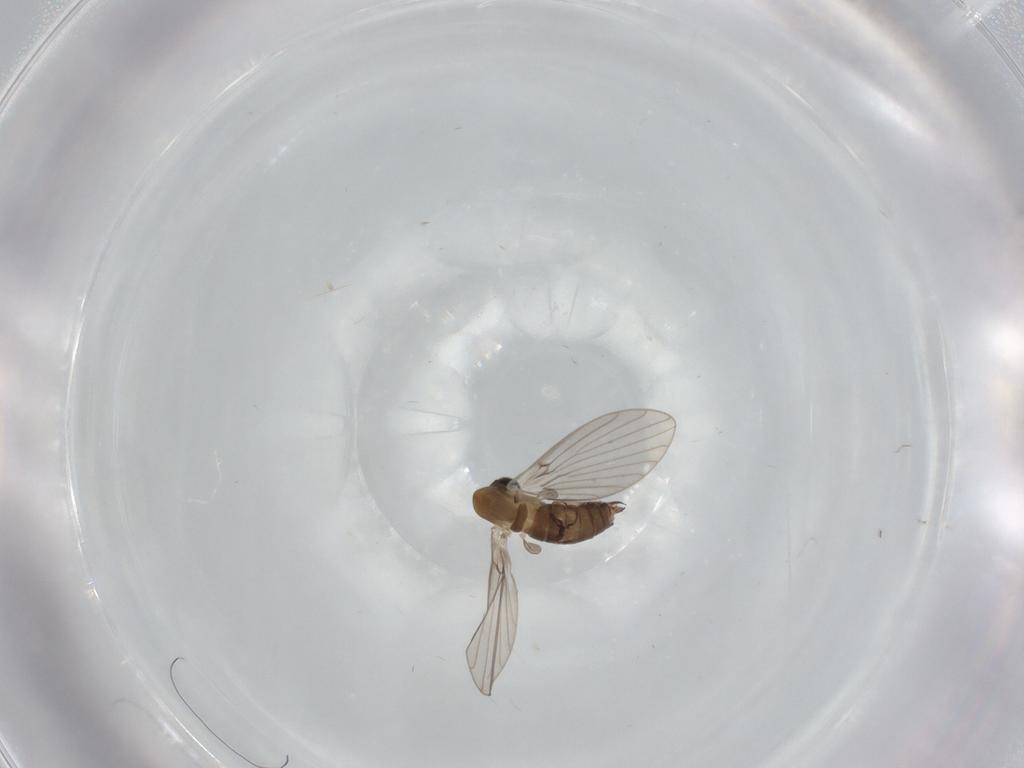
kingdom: Animalia
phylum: Arthropoda
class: Insecta
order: Diptera
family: Psychodidae
